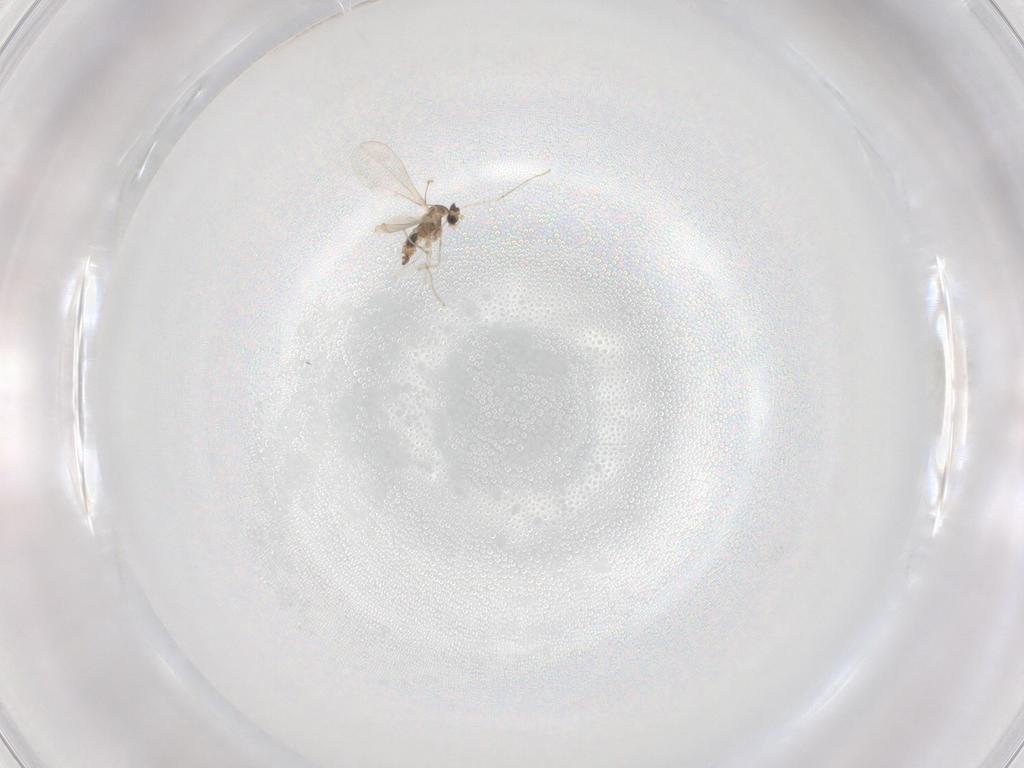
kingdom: Animalia
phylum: Arthropoda
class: Insecta
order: Diptera
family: Cecidomyiidae
